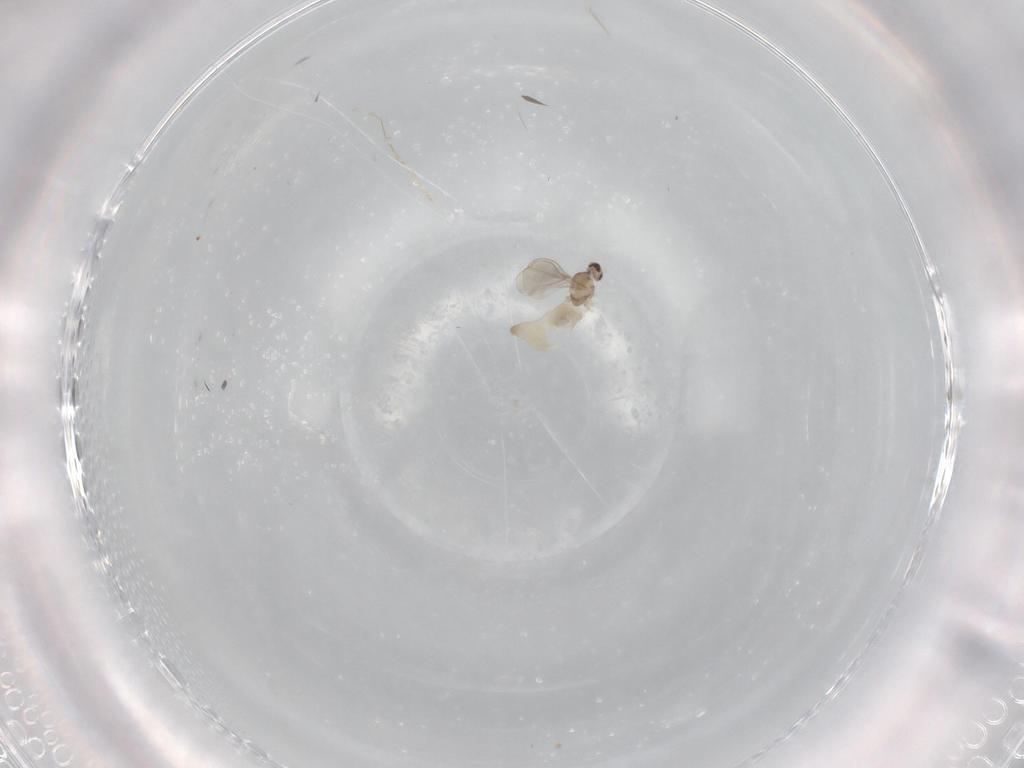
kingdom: Animalia
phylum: Arthropoda
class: Insecta
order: Diptera
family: Cecidomyiidae
